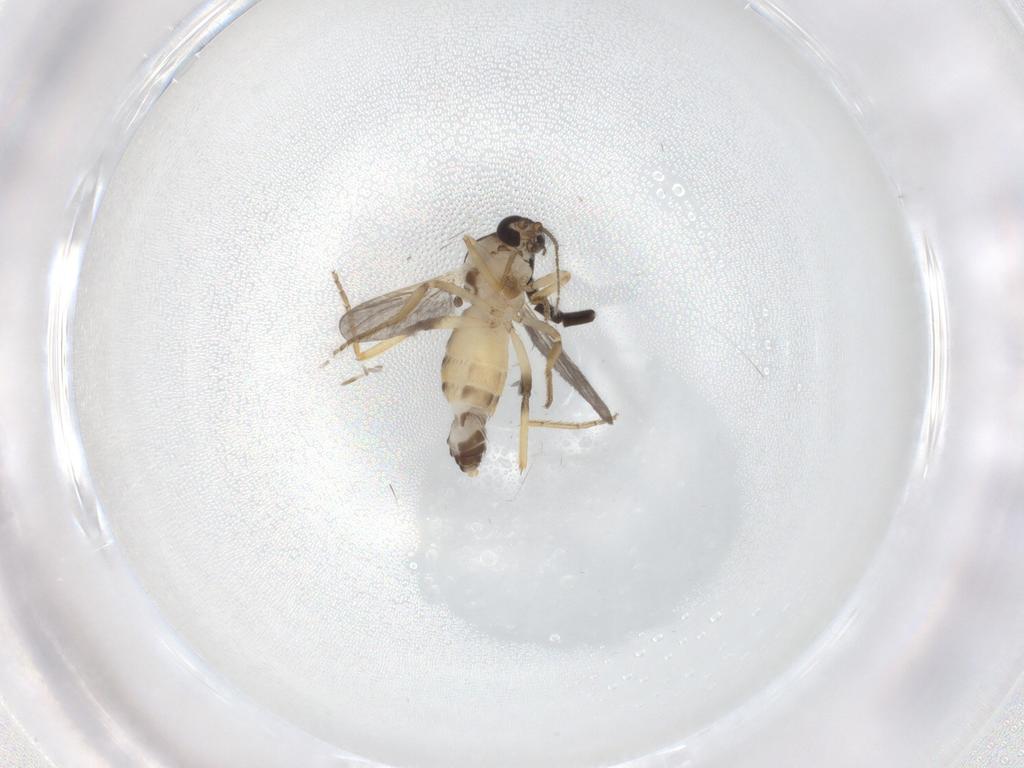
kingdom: Animalia
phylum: Arthropoda
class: Insecta
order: Diptera
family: Ceratopogonidae
